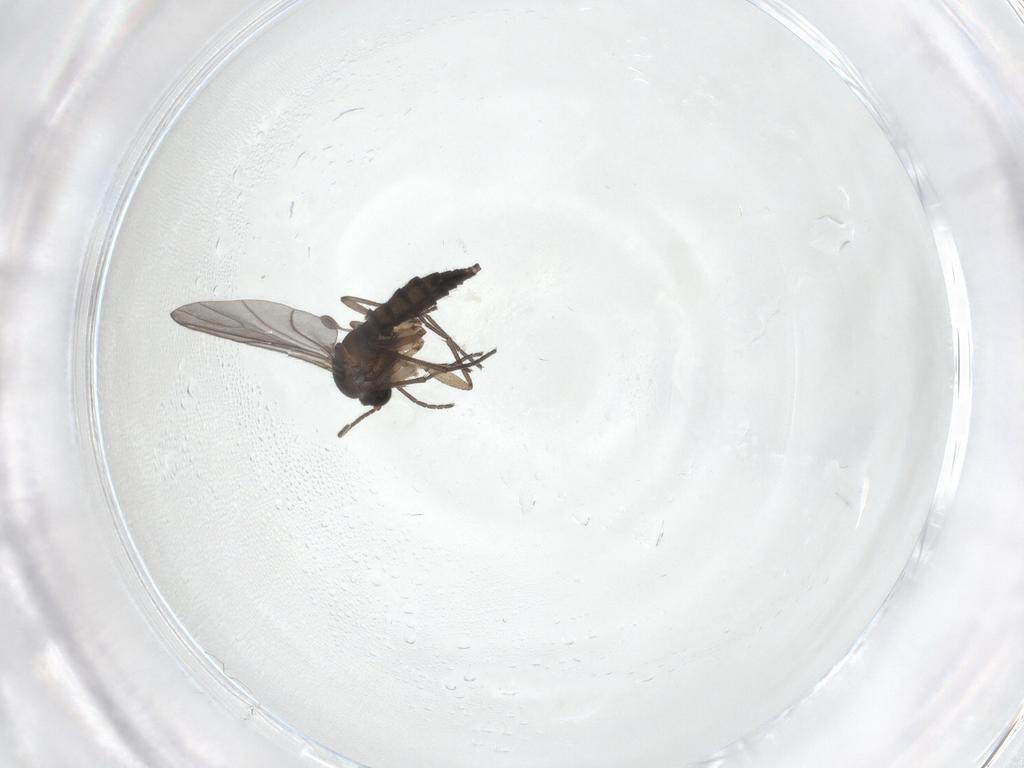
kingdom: Animalia
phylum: Arthropoda
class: Insecta
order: Diptera
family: Sciaridae
